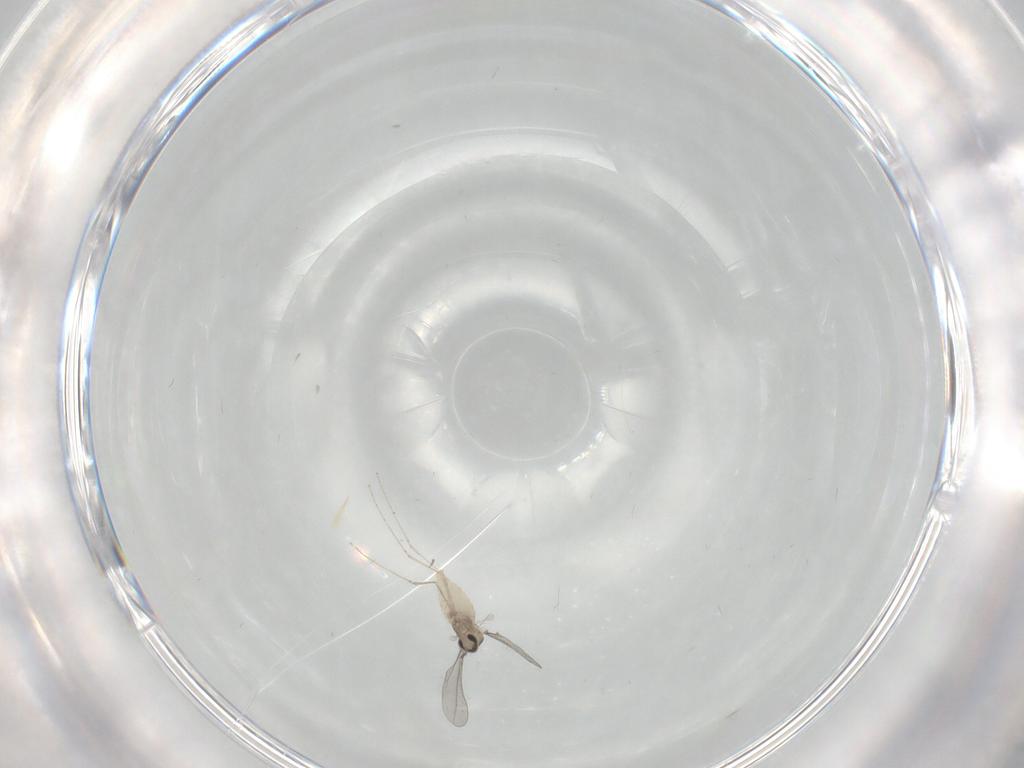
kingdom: Animalia
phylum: Arthropoda
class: Insecta
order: Diptera
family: Chironomidae
